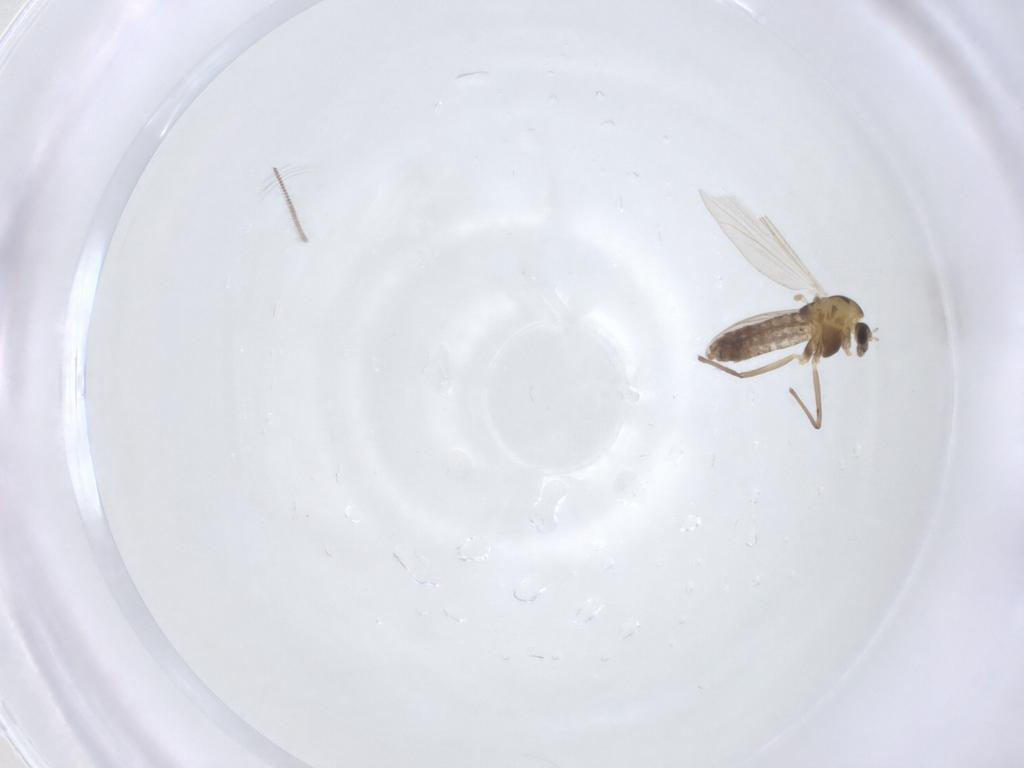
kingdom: Animalia
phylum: Arthropoda
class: Insecta
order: Diptera
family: Chironomidae
